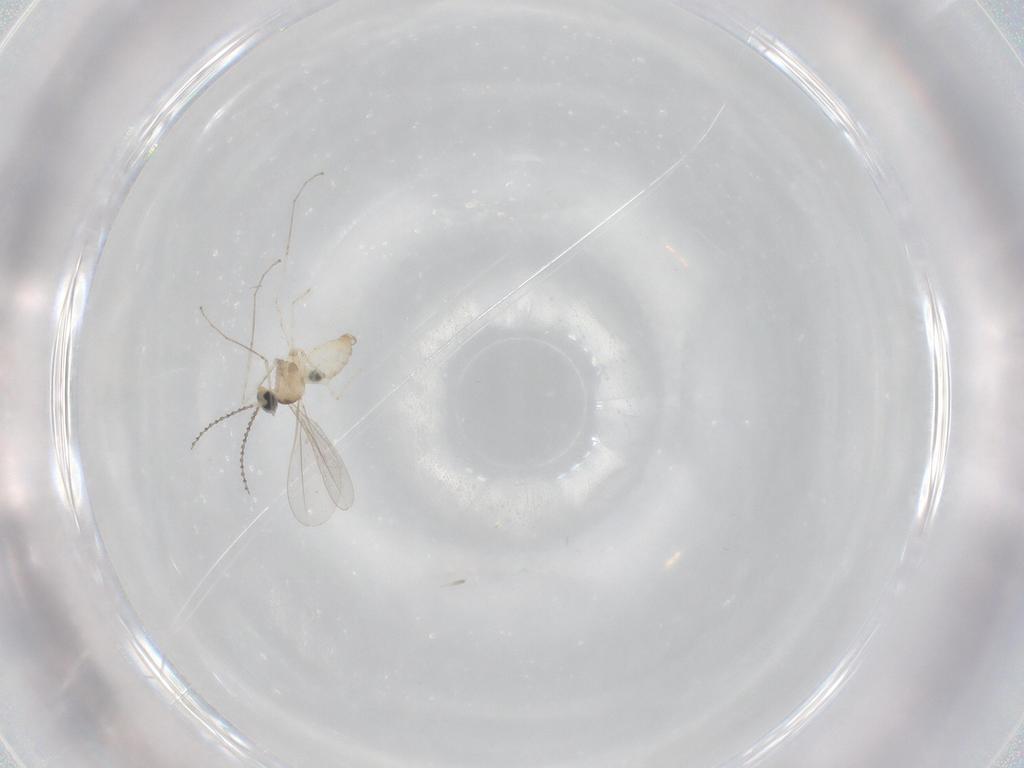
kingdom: Animalia
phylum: Arthropoda
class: Insecta
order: Diptera
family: Cecidomyiidae
